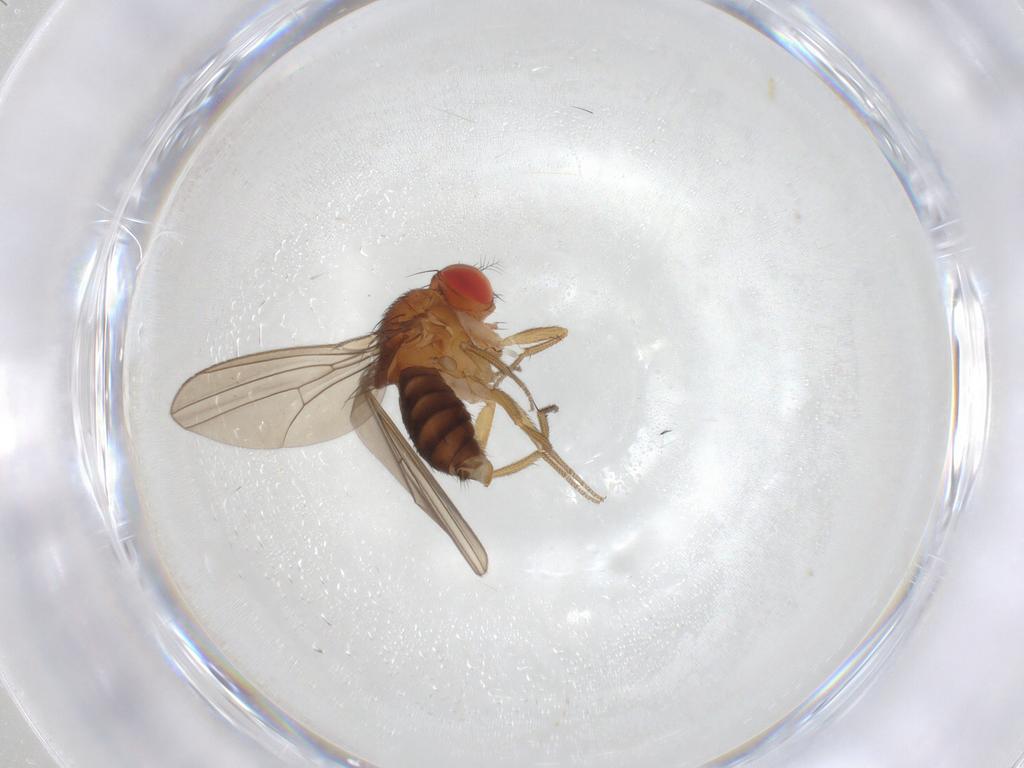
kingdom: Animalia
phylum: Arthropoda
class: Insecta
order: Diptera
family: Drosophilidae
